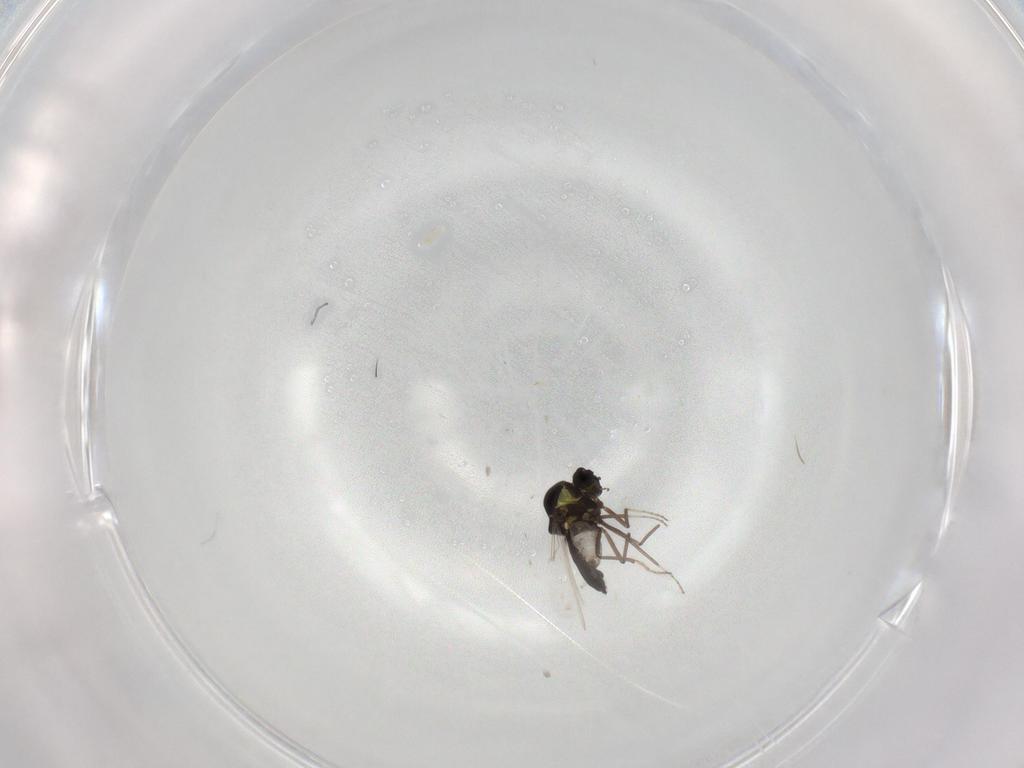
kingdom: Animalia
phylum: Arthropoda
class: Insecta
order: Diptera
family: Ceratopogonidae
